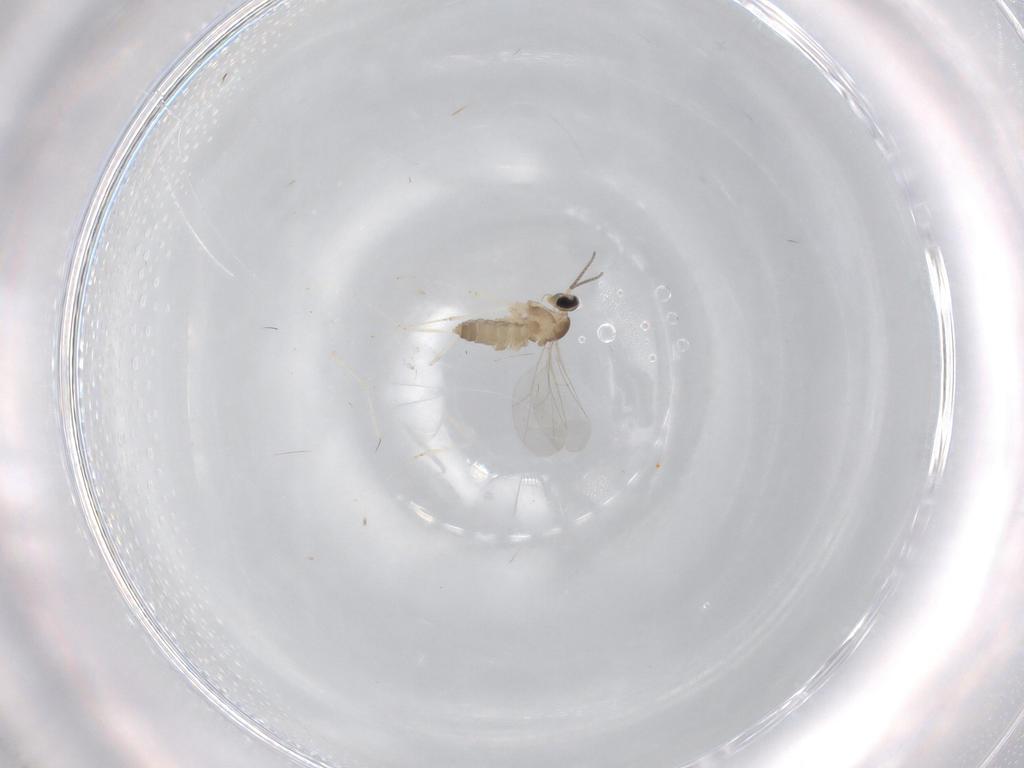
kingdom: Animalia
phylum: Arthropoda
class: Insecta
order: Diptera
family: Cecidomyiidae
